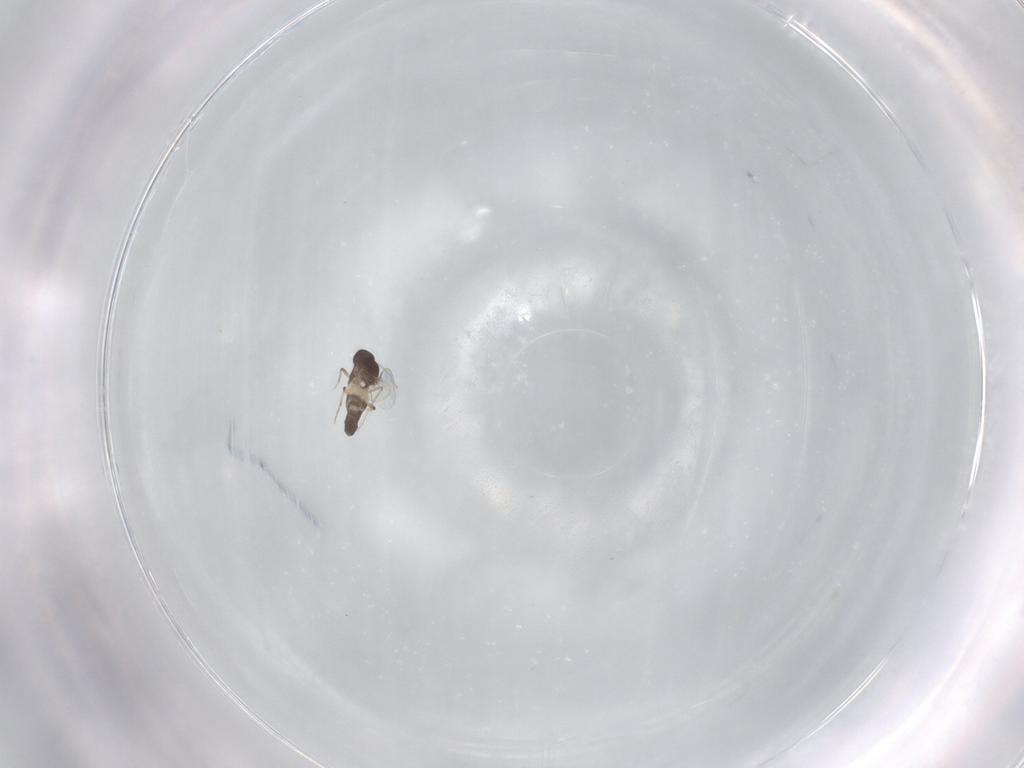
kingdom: Animalia
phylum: Arthropoda
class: Insecta
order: Diptera
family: Ceratopogonidae
